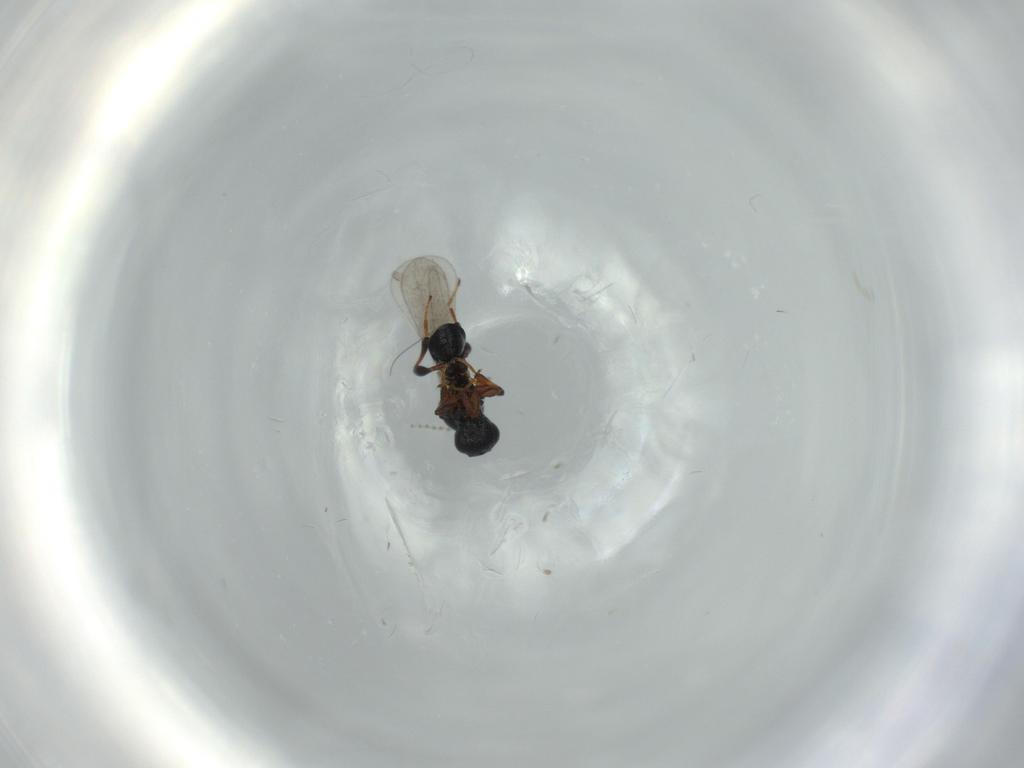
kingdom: Animalia
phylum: Arthropoda
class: Insecta
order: Hymenoptera
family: Platygastridae
